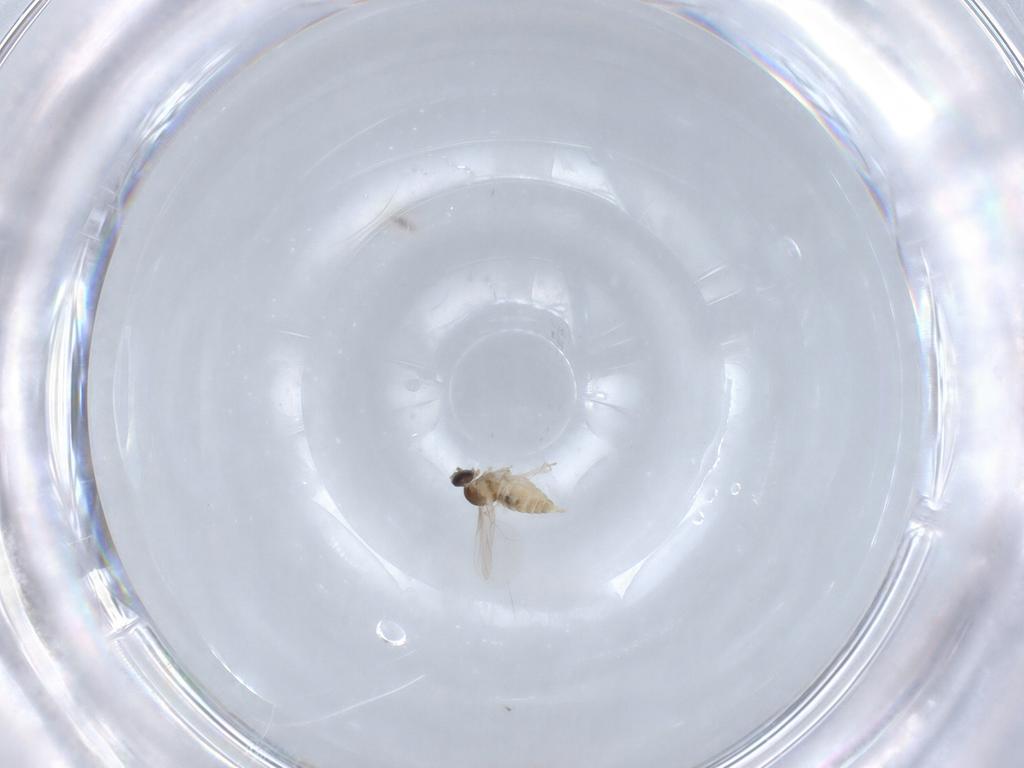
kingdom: Animalia
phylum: Arthropoda
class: Insecta
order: Diptera
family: Cecidomyiidae
